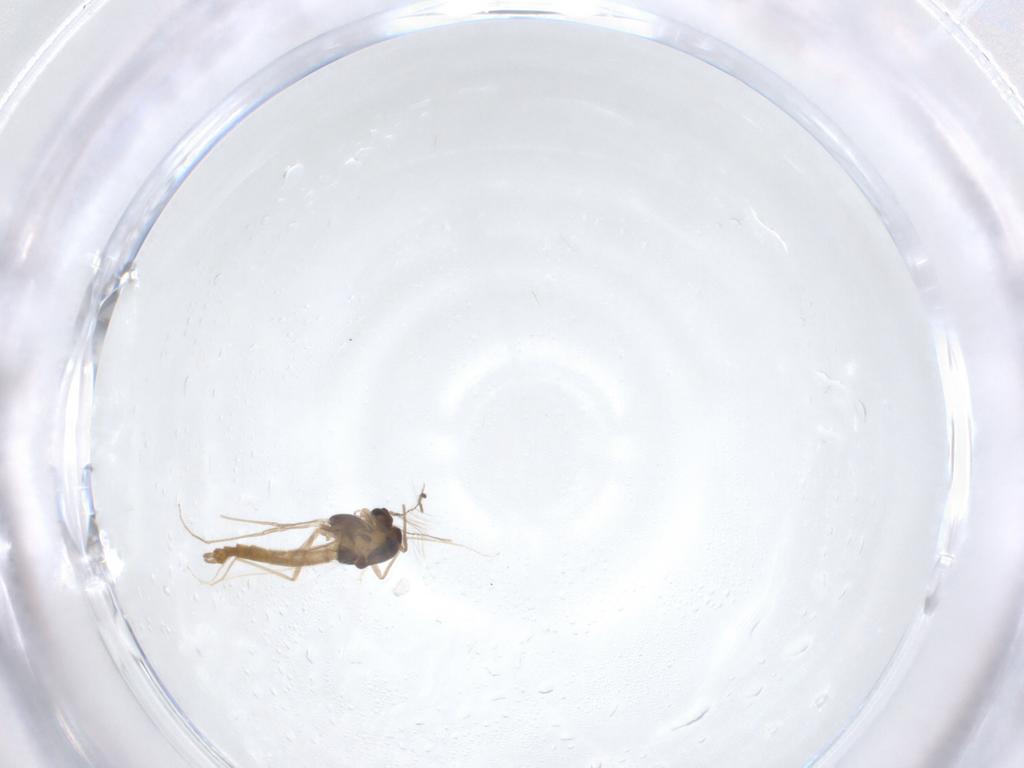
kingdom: Animalia
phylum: Arthropoda
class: Insecta
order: Diptera
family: Chironomidae
